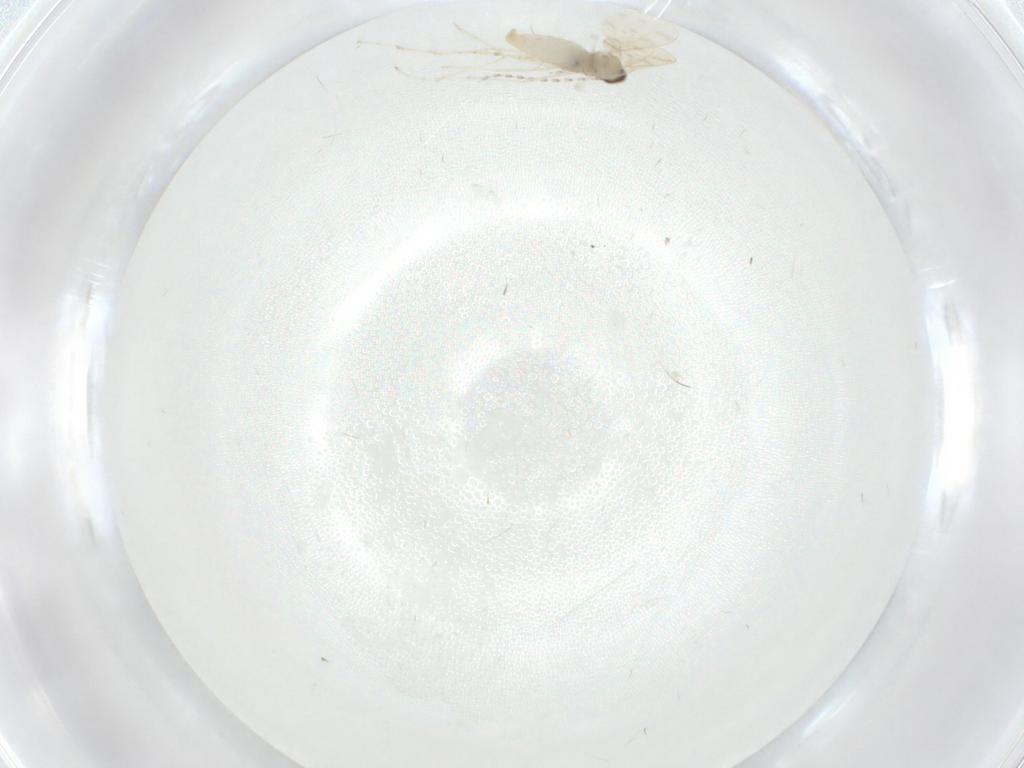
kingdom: Animalia
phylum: Arthropoda
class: Insecta
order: Diptera
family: Cecidomyiidae
